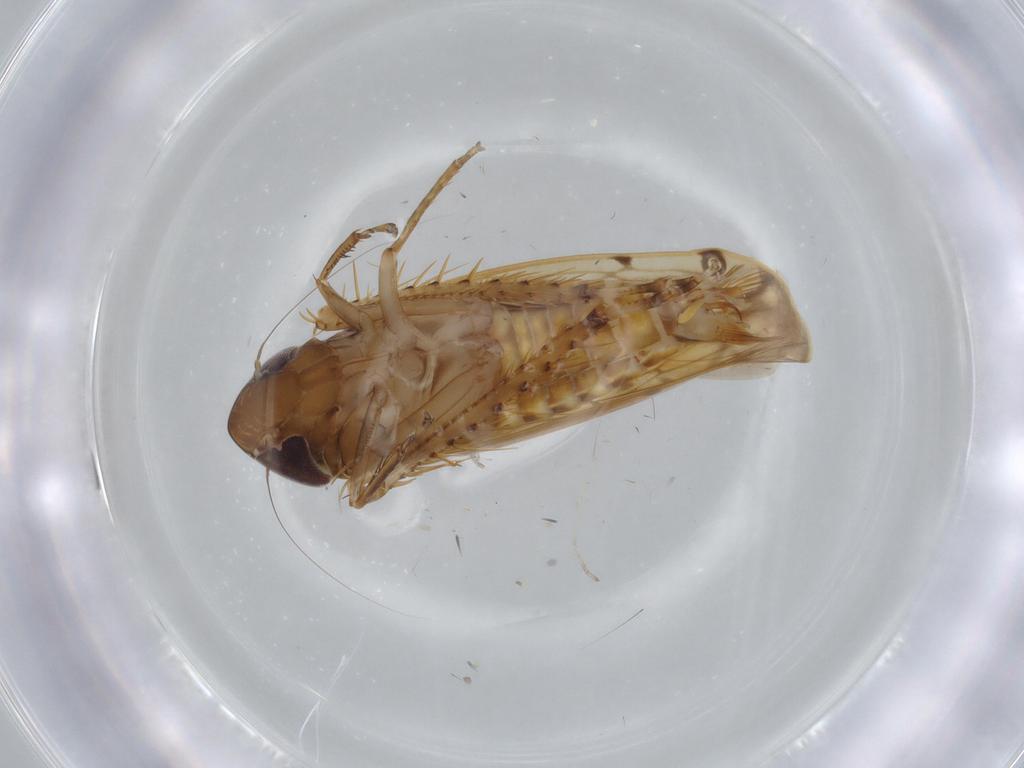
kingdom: Animalia
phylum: Arthropoda
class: Insecta
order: Hemiptera
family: Cicadellidae
